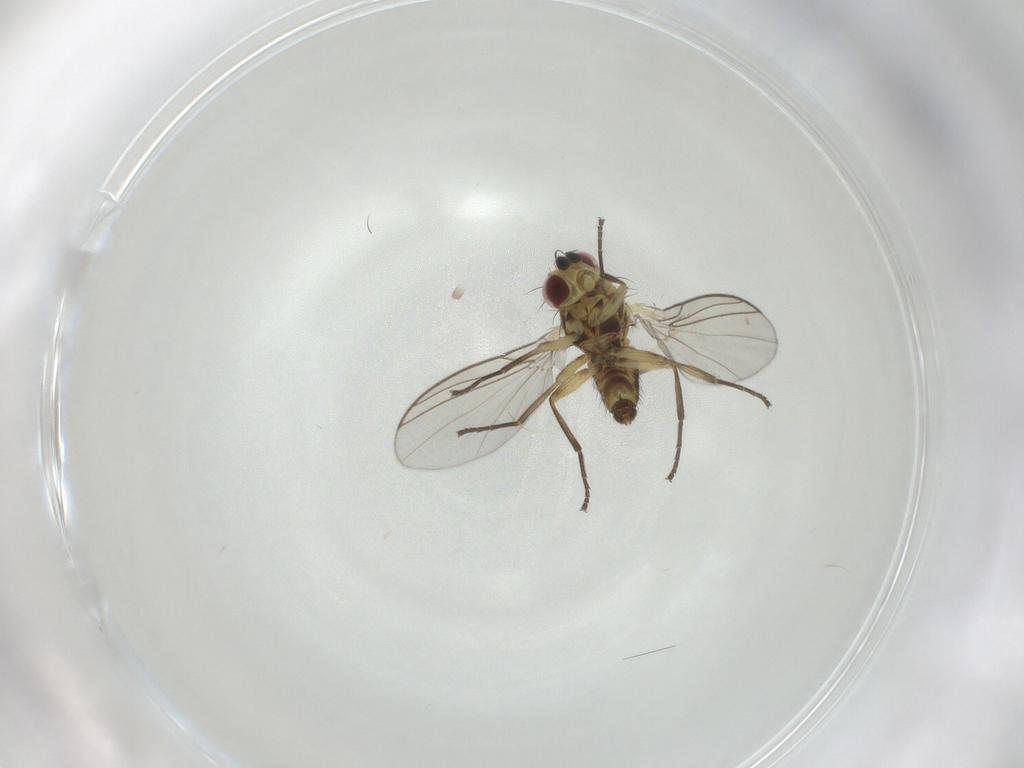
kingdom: Animalia
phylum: Arthropoda
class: Insecta
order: Diptera
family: Agromyzidae
